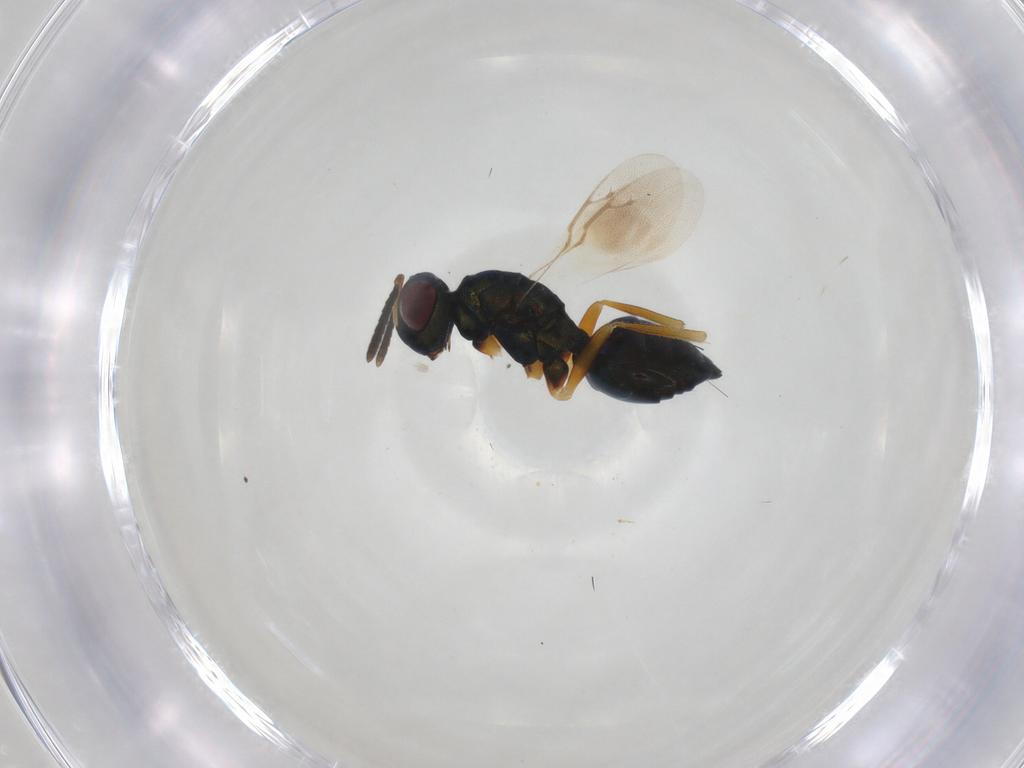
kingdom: Animalia
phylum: Arthropoda
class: Insecta
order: Hymenoptera
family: Pteromalidae
